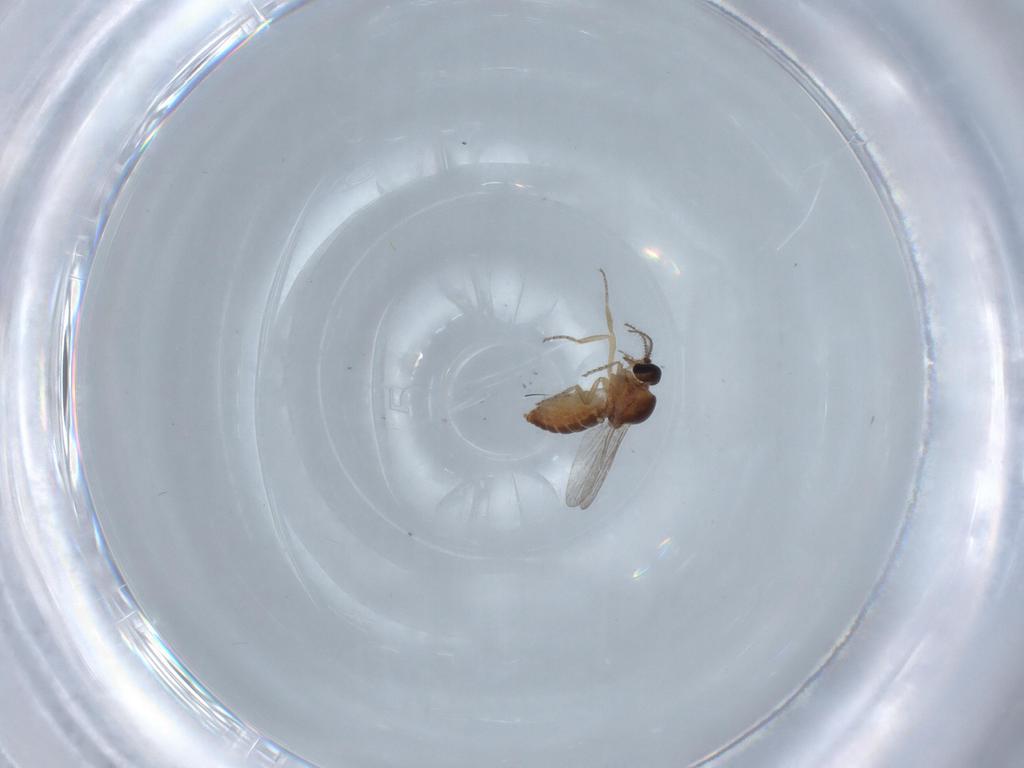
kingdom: Animalia
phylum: Arthropoda
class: Insecta
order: Diptera
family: Ceratopogonidae
